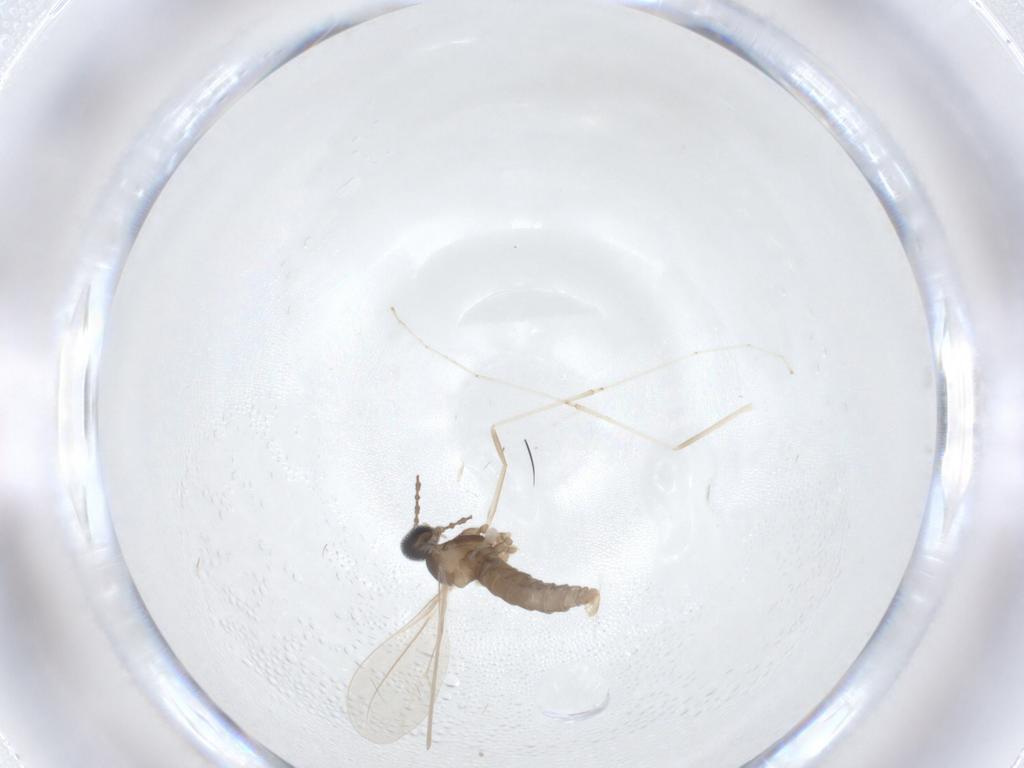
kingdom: Animalia
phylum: Arthropoda
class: Insecta
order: Diptera
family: Cecidomyiidae
